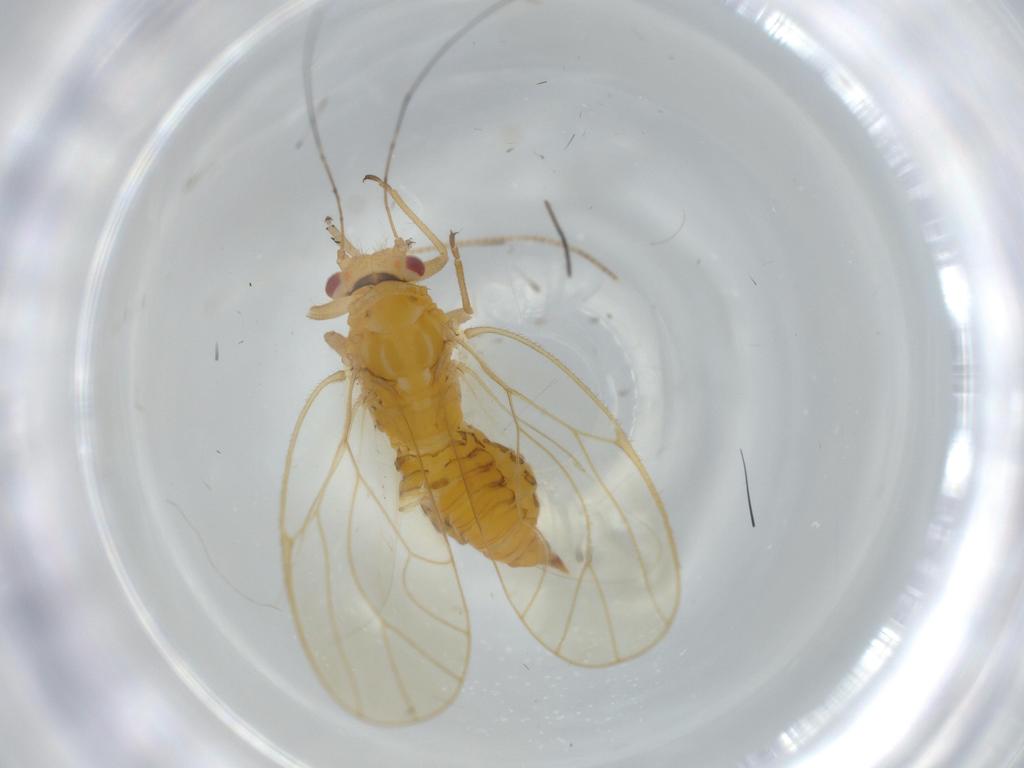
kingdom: Animalia
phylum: Arthropoda
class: Insecta
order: Hemiptera
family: Psyllidae
